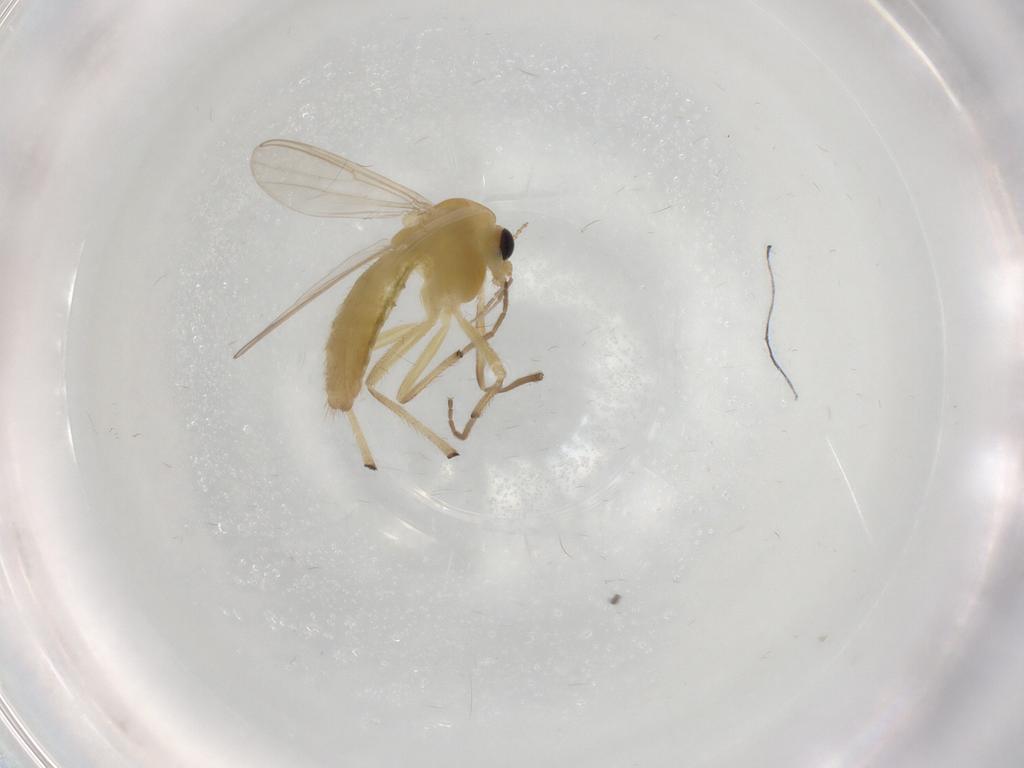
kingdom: Animalia
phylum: Arthropoda
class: Insecta
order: Diptera
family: Chironomidae
